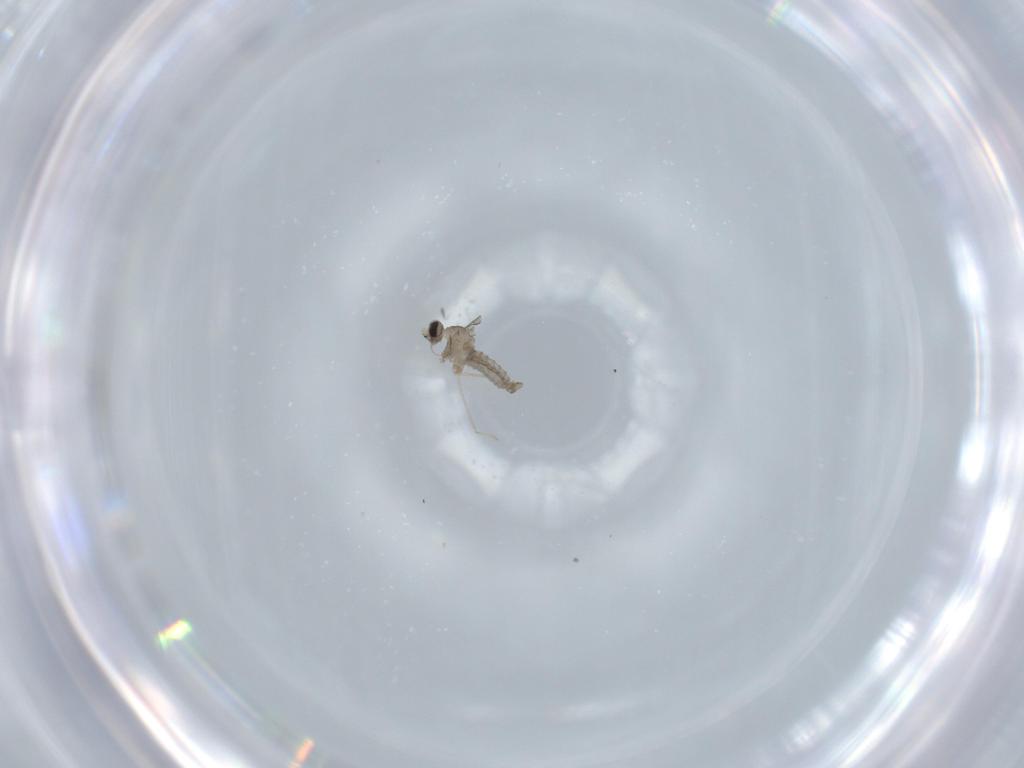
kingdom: Animalia
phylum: Arthropoda
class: Insecta
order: Diptera
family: Cecidomyiidae
